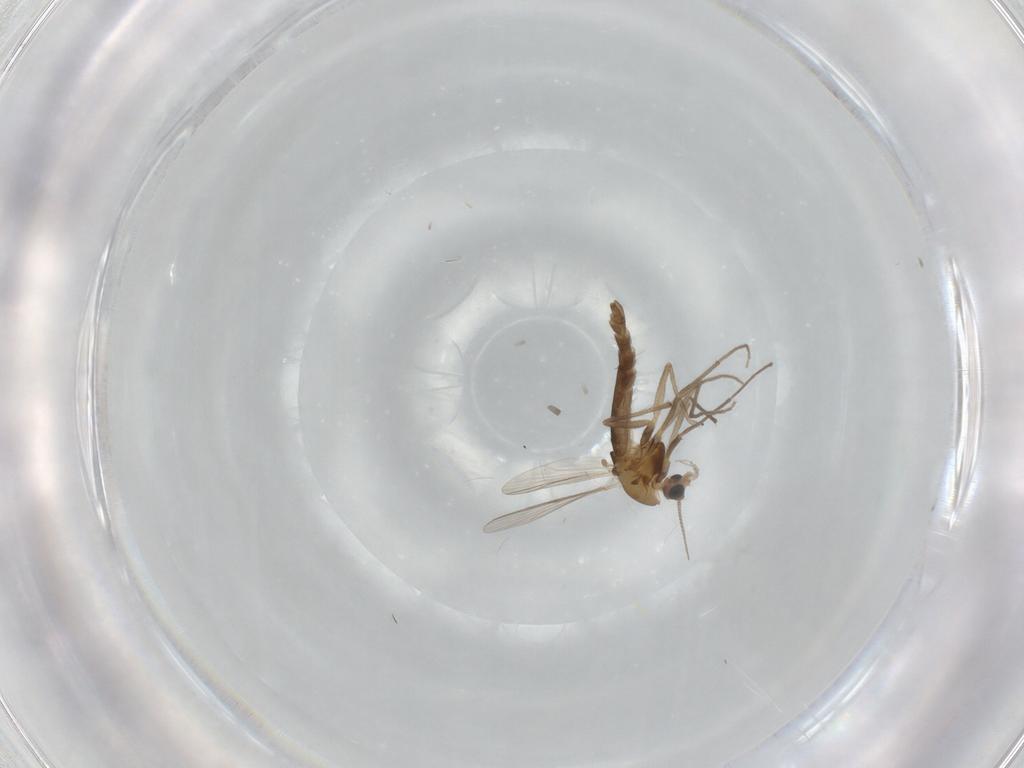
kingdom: Animalia
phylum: Arthropoda
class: Insecta
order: Diptera
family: Chironomidae
